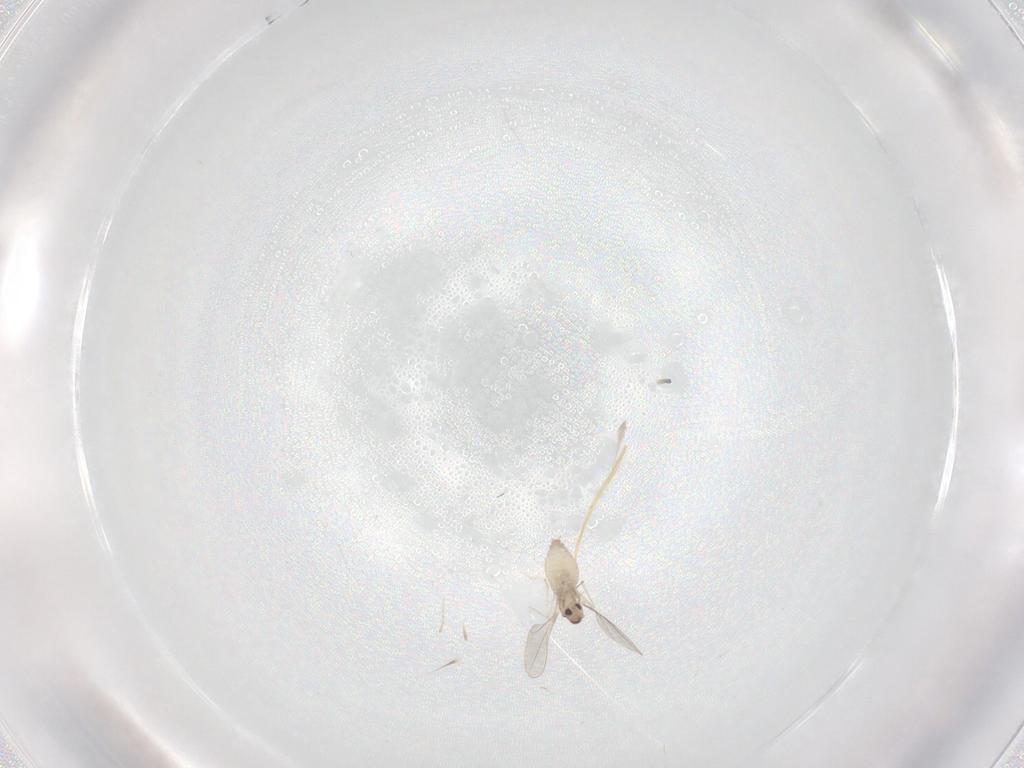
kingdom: Animalia
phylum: Arthropoda
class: Insecta
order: Diptera
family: Cecidomyiidae
